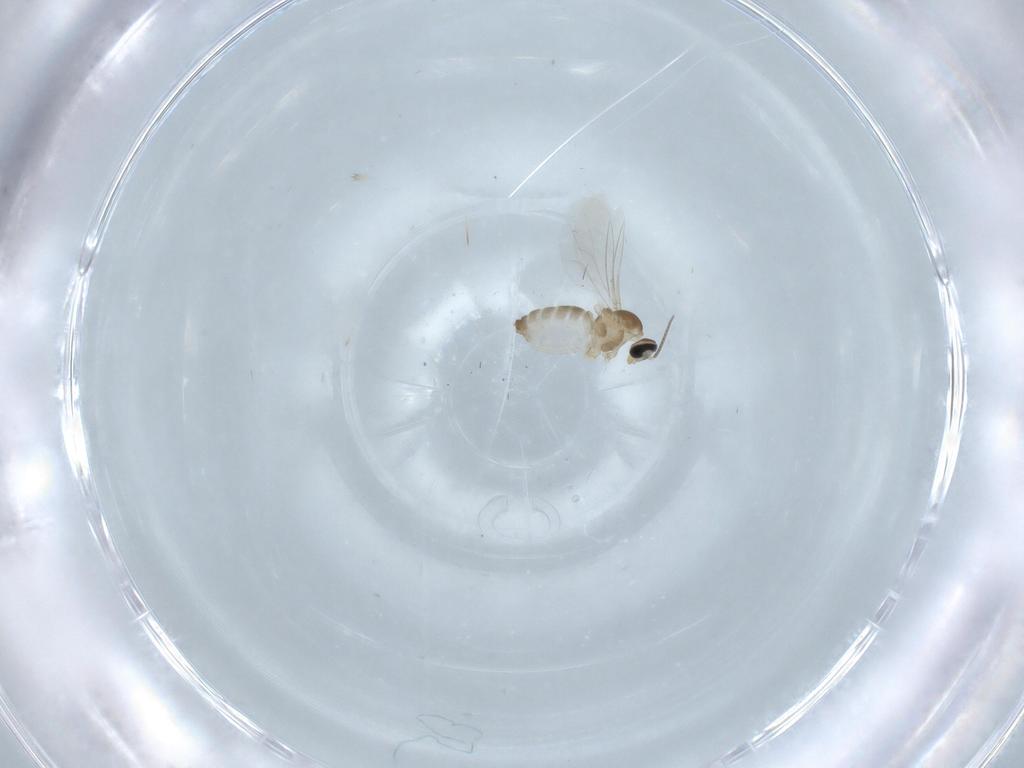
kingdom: Animalia
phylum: Arthropoda
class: Insecta
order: Diptera
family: Cecidomyiidae
